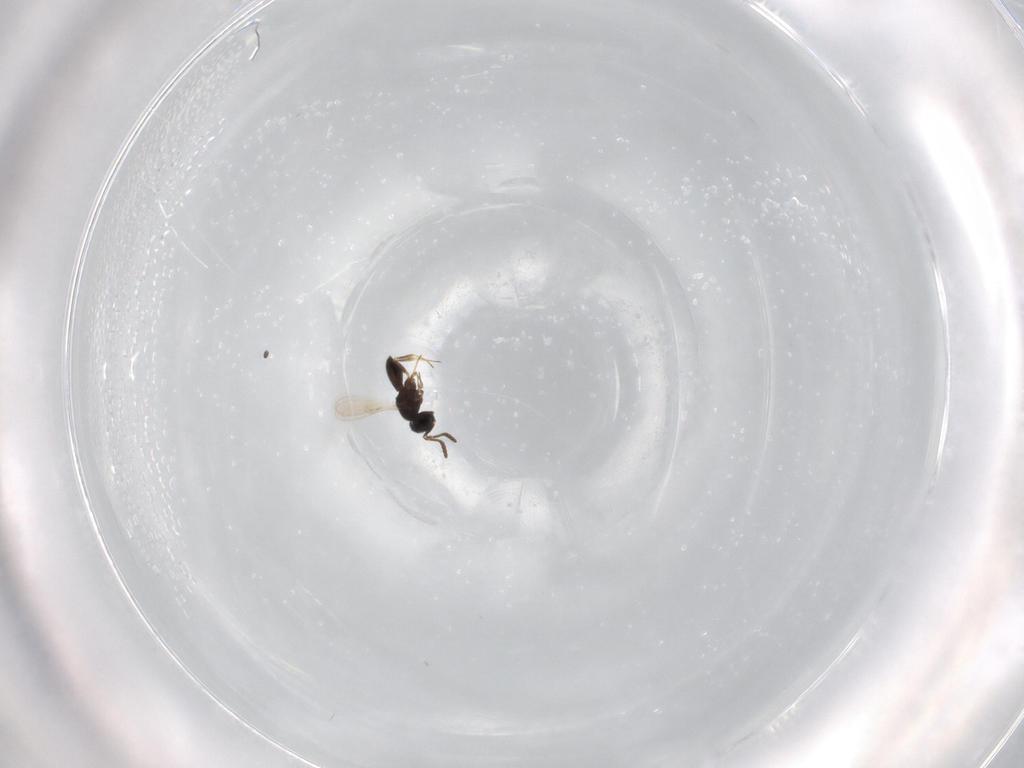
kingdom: Animalia
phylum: Arthropoda
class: Insecta
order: Hymenoptera
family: Scelionidae
